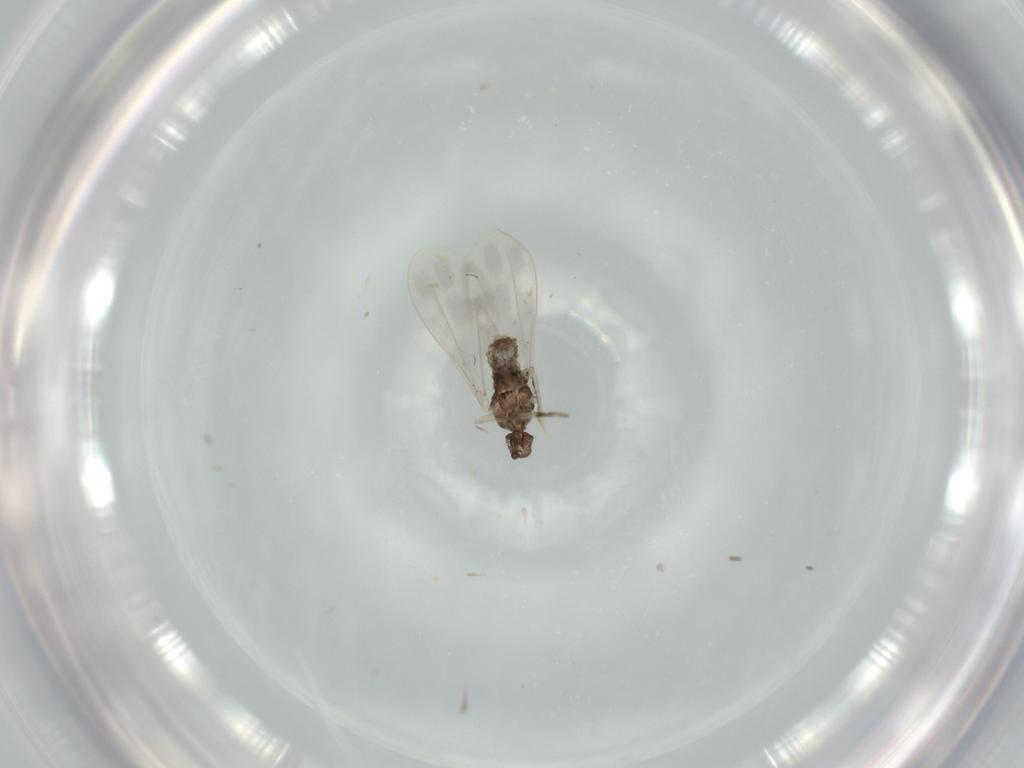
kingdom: Animalia
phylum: Arthropoda
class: Insecta
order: Diptera
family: Cecidomyiidae
